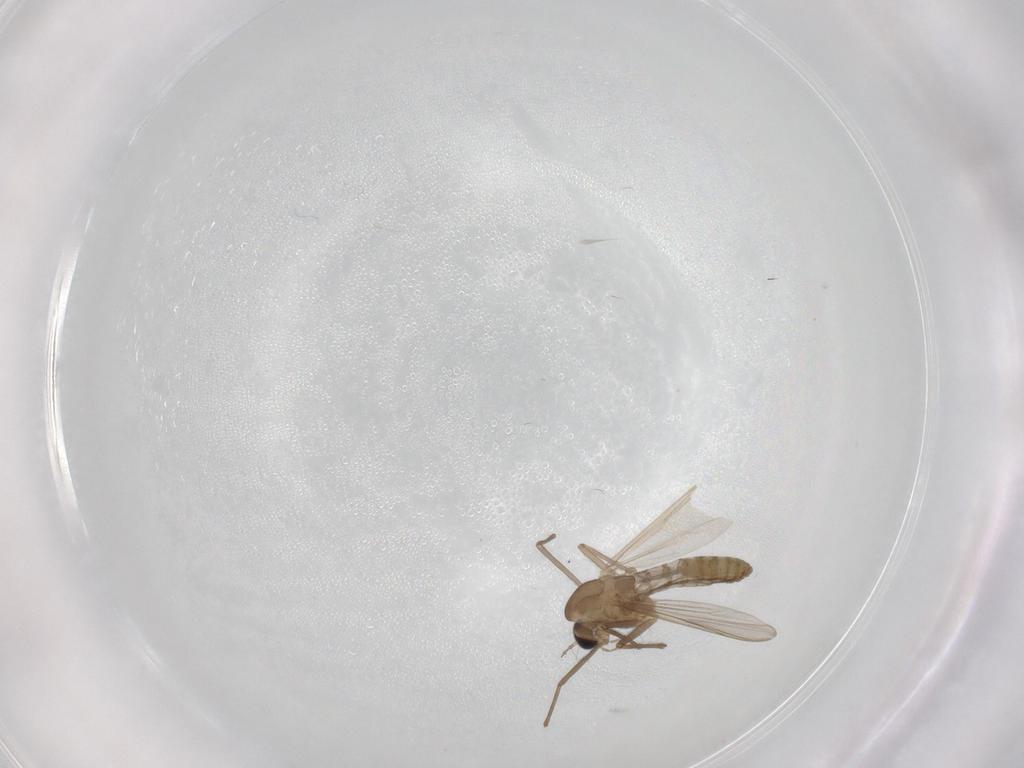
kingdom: Animalia
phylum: Arthropoda
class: Insecta
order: Diptera
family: Chironomidae
